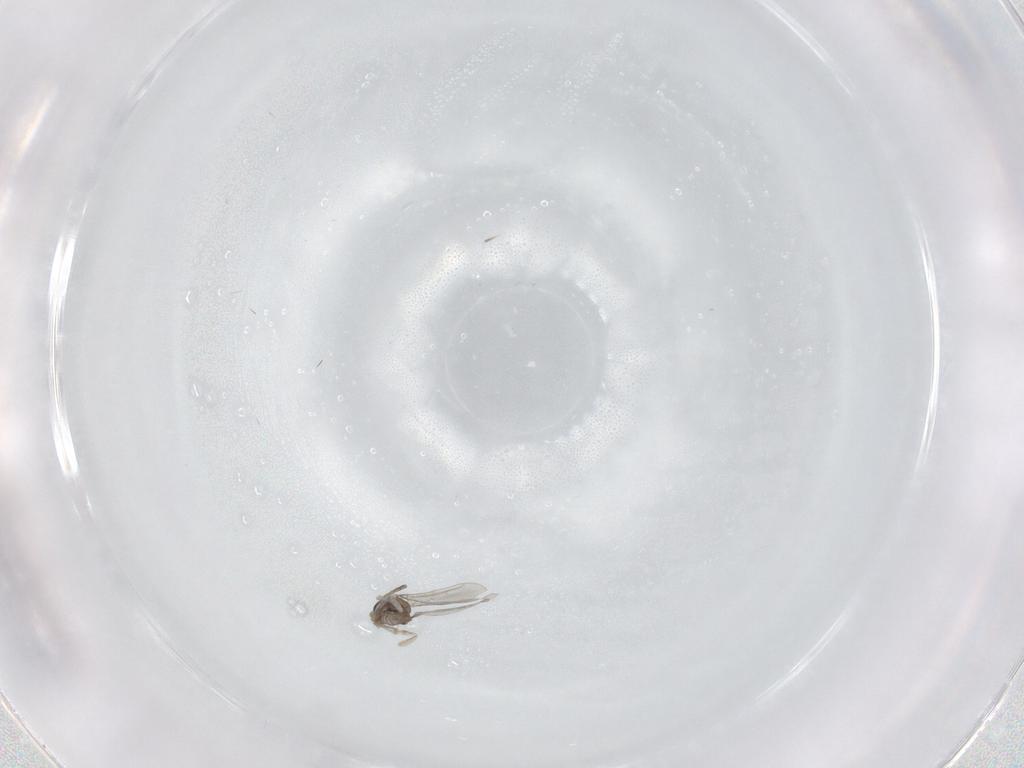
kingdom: Animalia
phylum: Arthropoda
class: Insecta
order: Diptera
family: Cecidomyiidae
